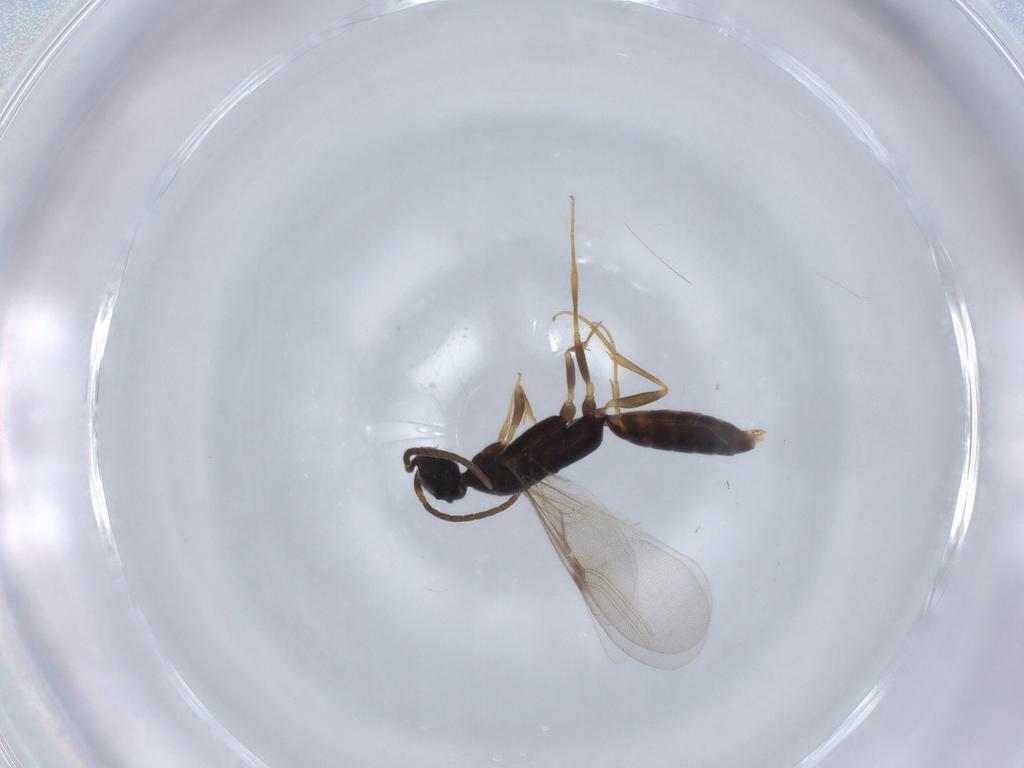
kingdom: Animalia
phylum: Arthropoda
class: Insecta
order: Hymenoptera
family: Bethylidae
